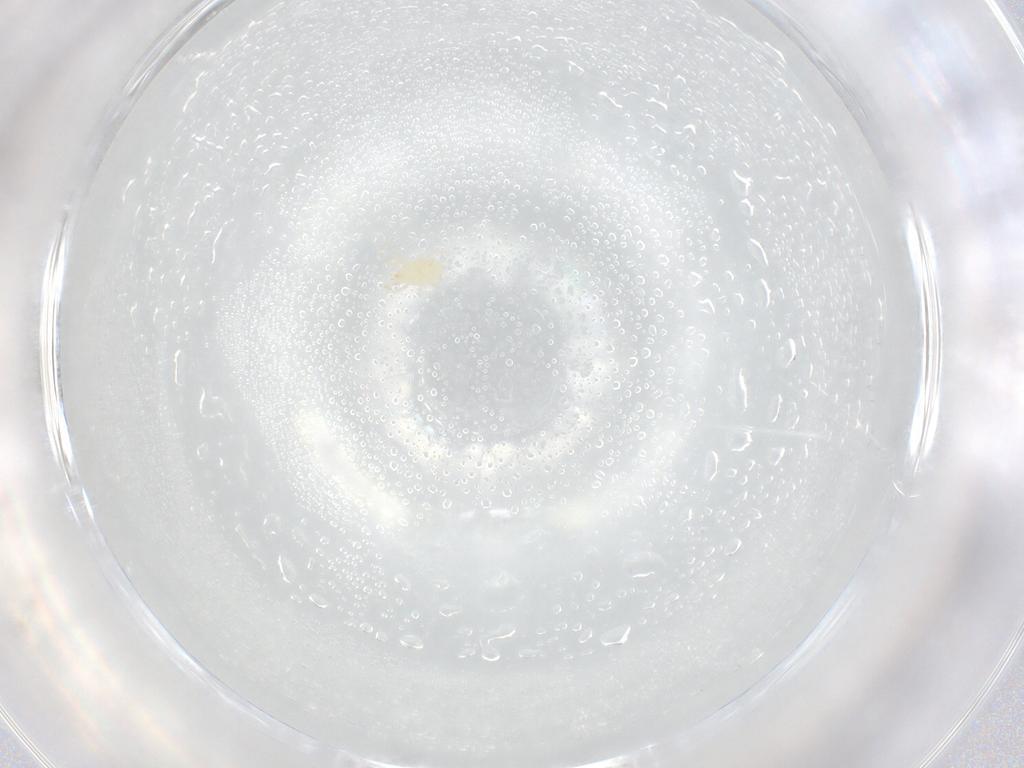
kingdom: Animalia
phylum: Arthropoda
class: Arachnida
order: Mesostigmata
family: Phytoseiidae
